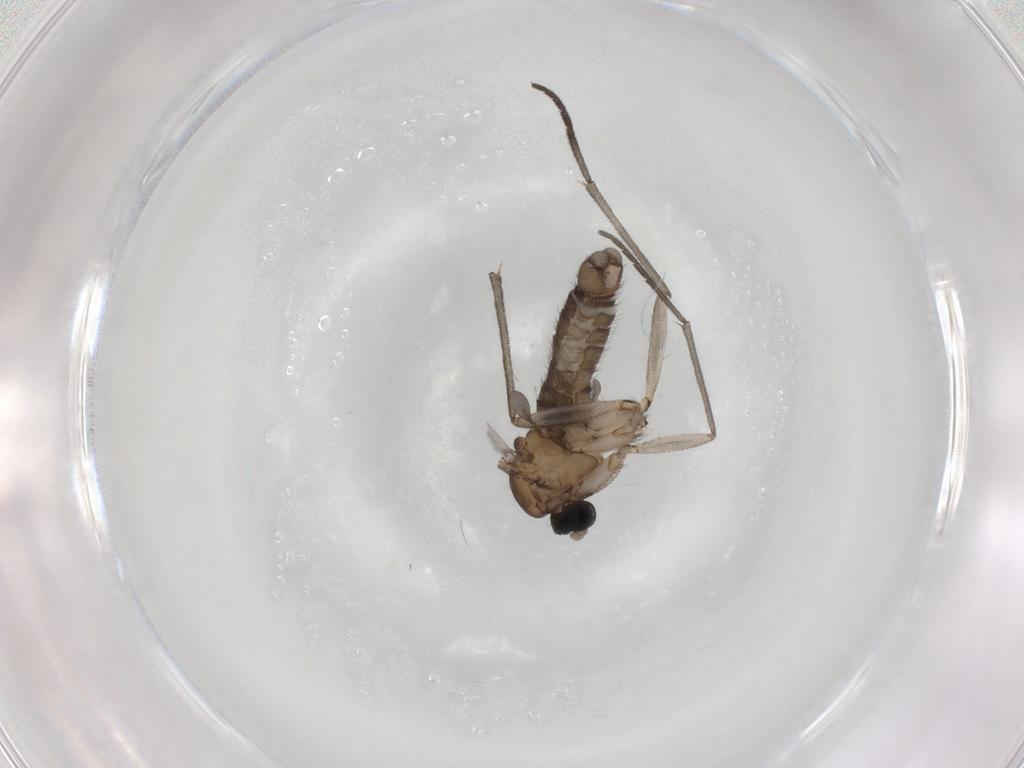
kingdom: Animalia
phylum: Arthropoda
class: Insecta
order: Diptera
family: Sciaridae
